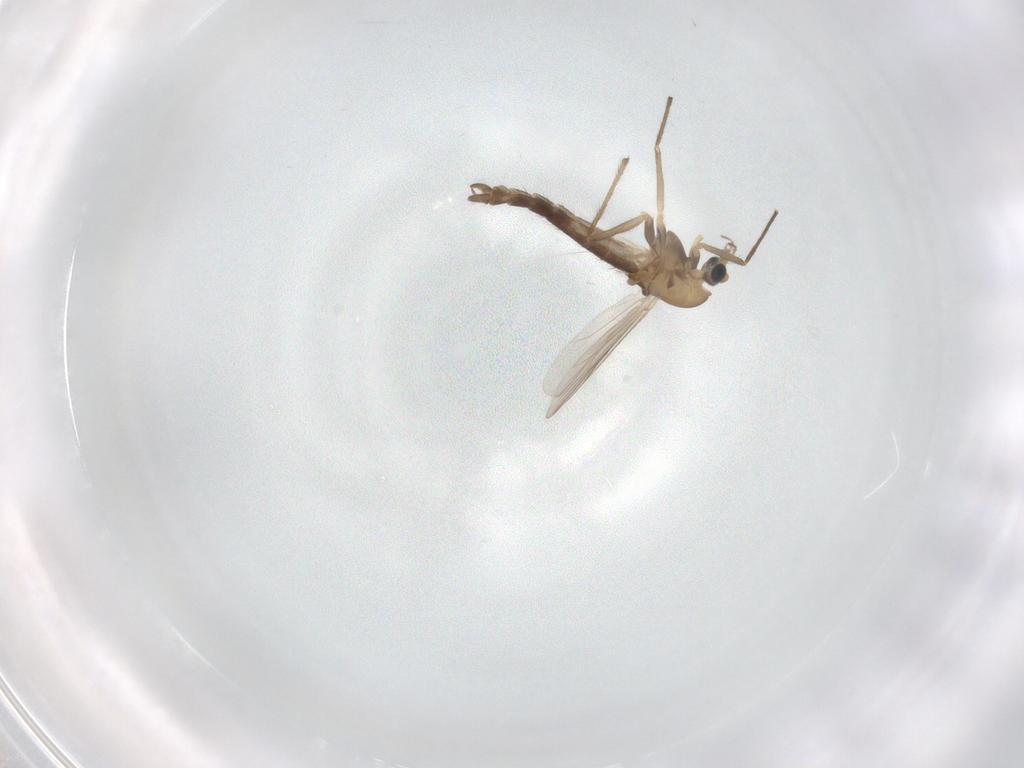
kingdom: Animalia
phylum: Arthropoda
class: Insecta
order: Diptera
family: Chironomidae
